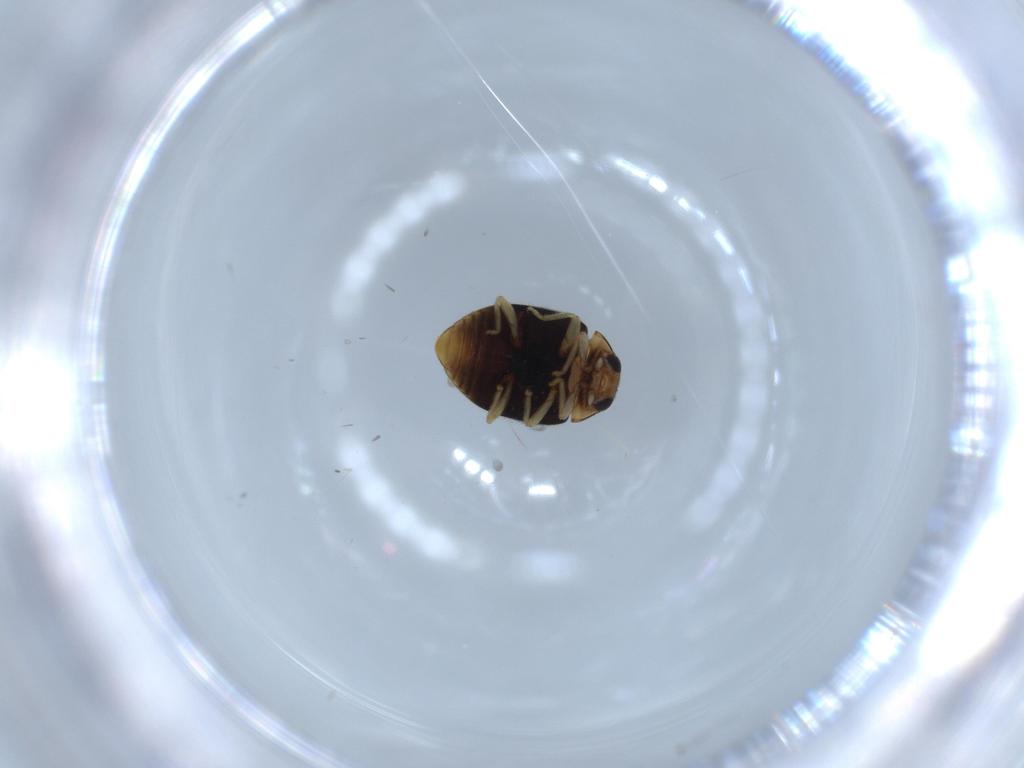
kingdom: Animalia
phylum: Arthropoda
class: Insecta
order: Coleoptera
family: Coccinellidae
